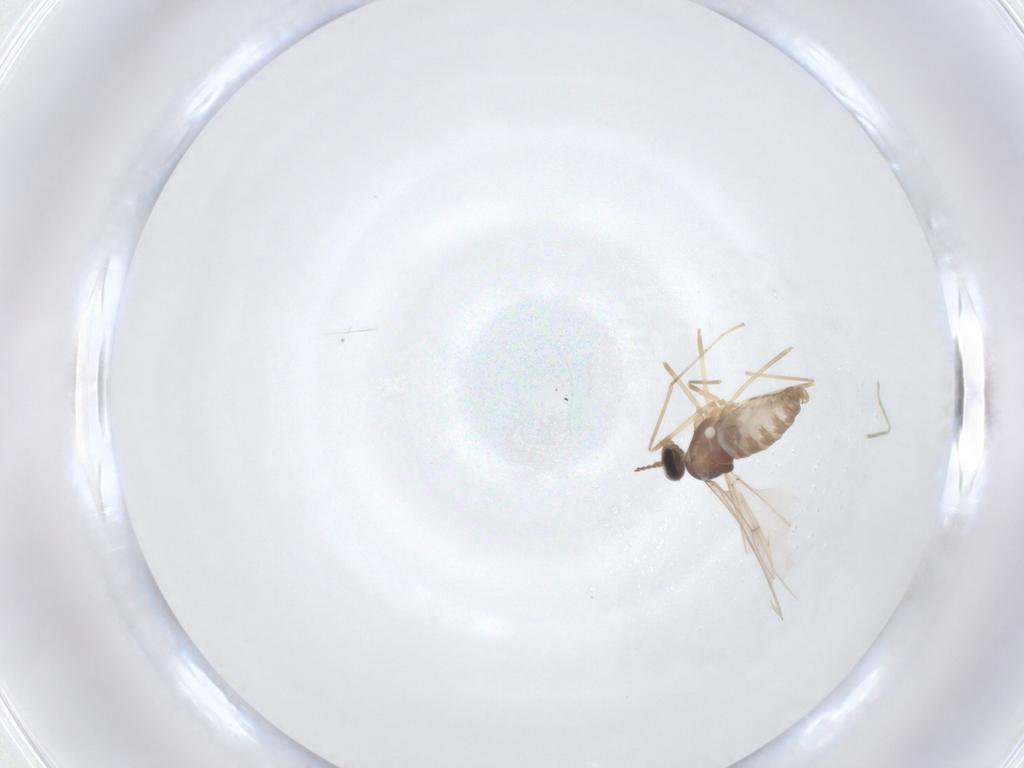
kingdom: Animalia
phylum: Arthropoda
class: Insecta
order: Diptera
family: Cecidomyiidae
